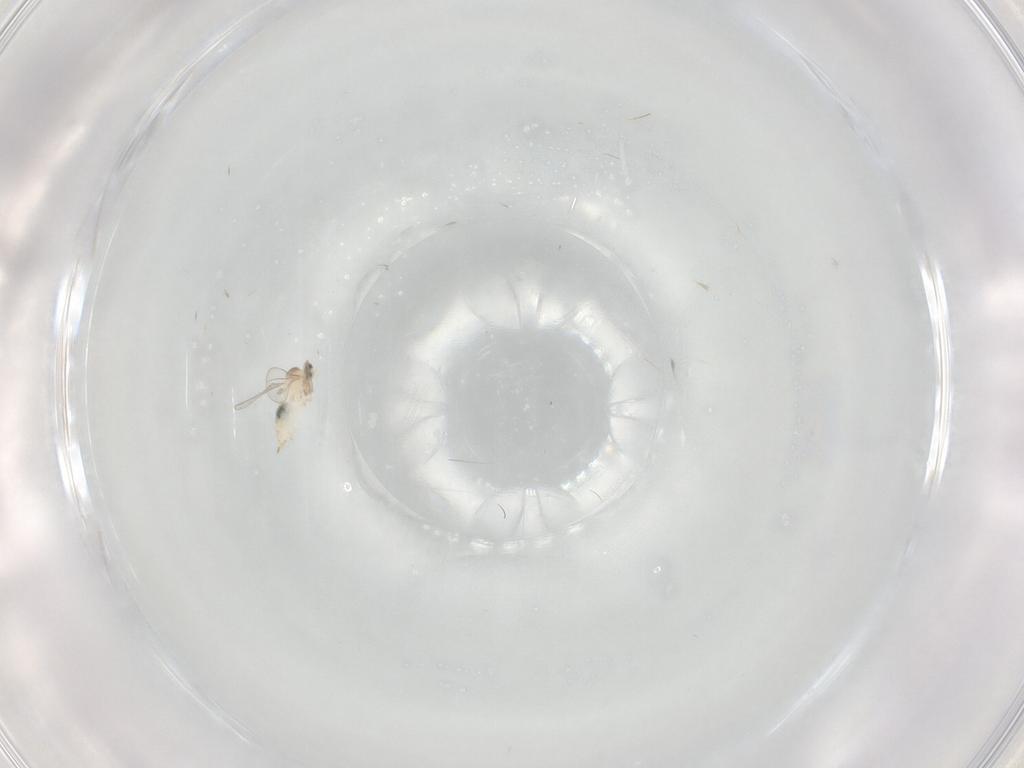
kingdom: Animalia
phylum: Arthropoda
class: Insecta
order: Diptera
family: Cecidomyiidae
